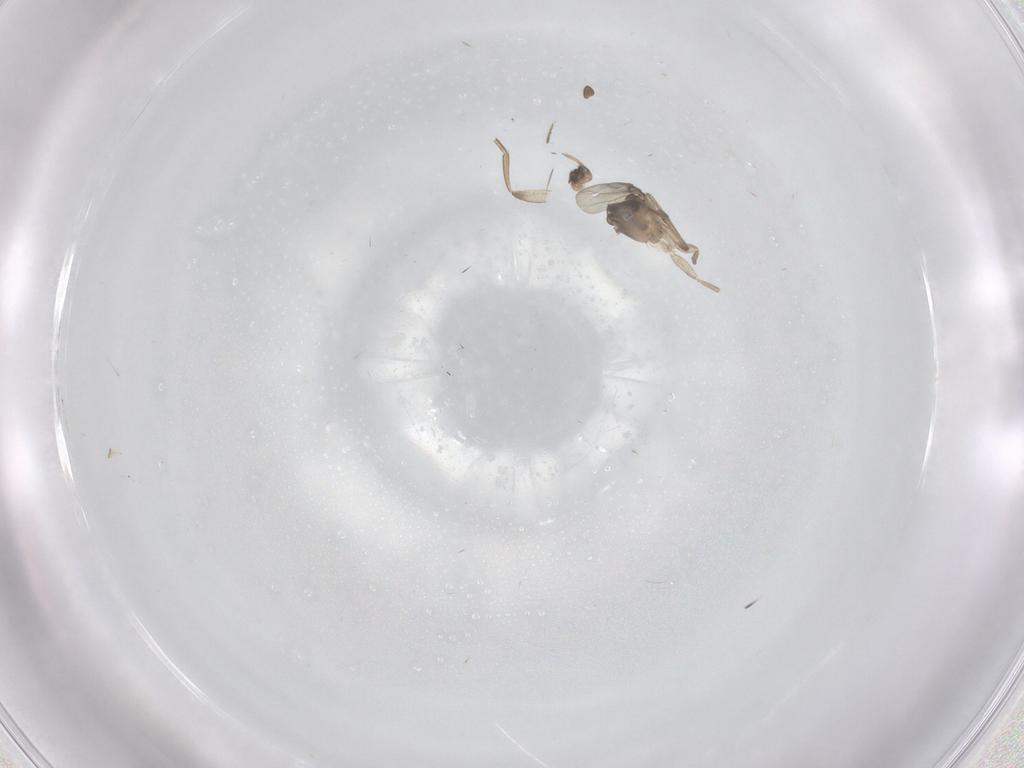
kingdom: Animalia
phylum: Arthropoda
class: Insecta
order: Diptera
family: Phoridae
